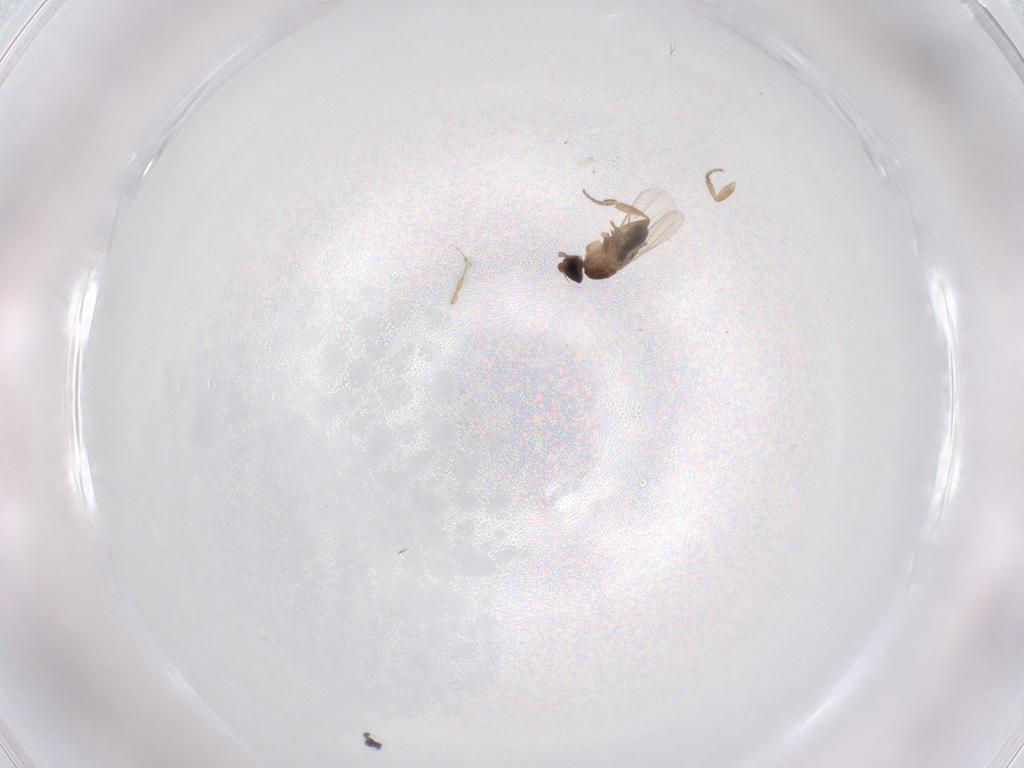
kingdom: Animalia
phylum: Arthropoda
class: Insecta
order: Diptera
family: Phoridae
